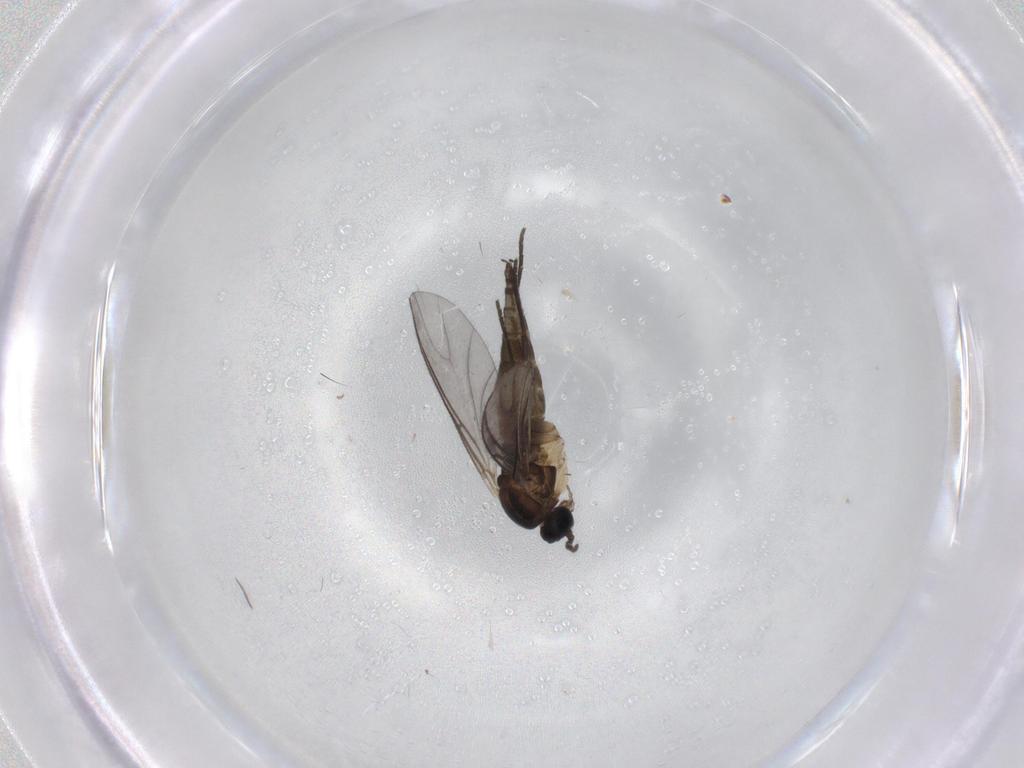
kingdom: Animalia
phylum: Arthropoda
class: Insecta
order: Diptera
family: Sciaridae
